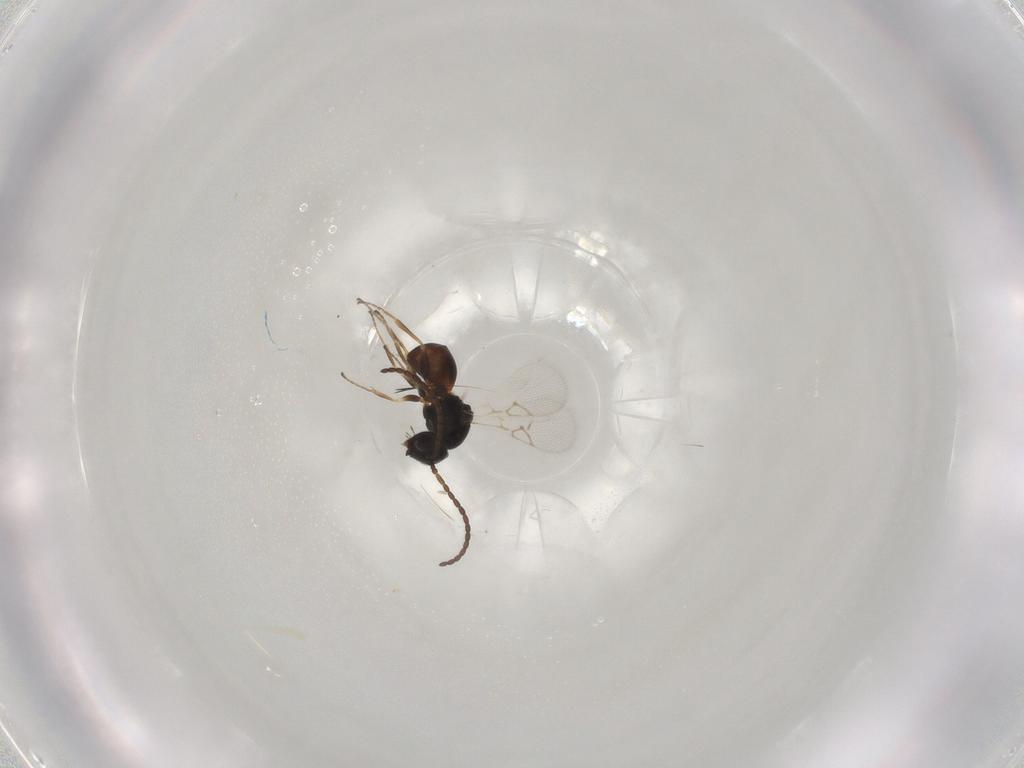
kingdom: Animalia
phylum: Arthropoda
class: Insecta
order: Hymenoptera
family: Figitidae
